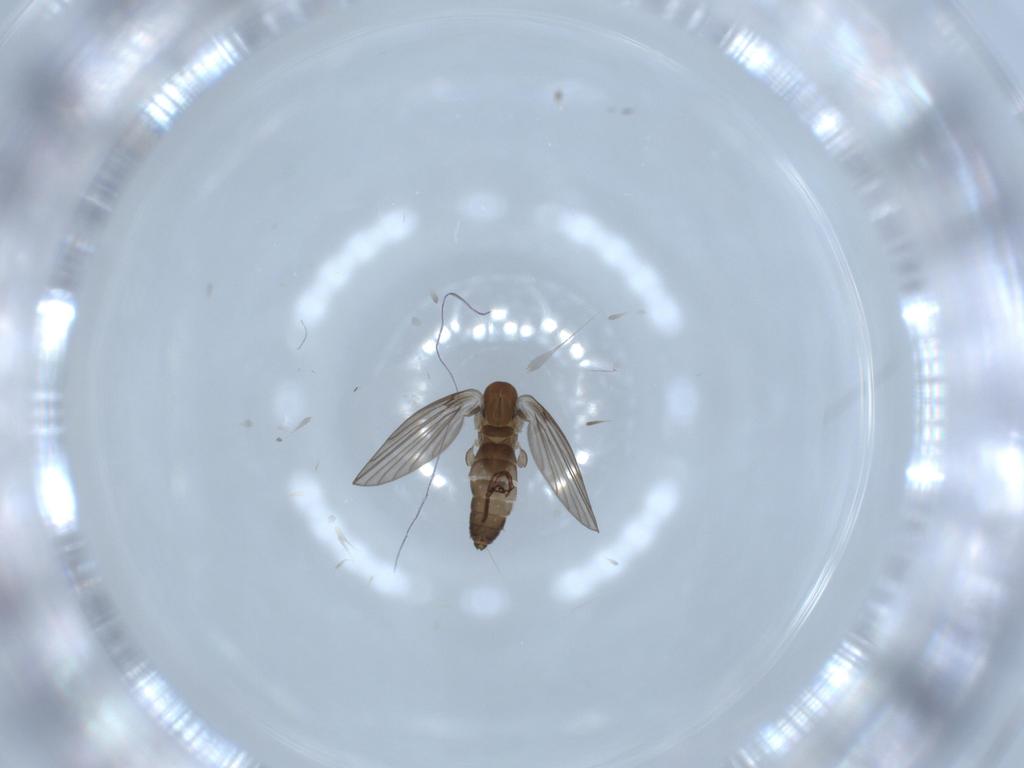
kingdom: Animalia
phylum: Arthropoda
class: Insecta
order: Diptera
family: Psychodidae
